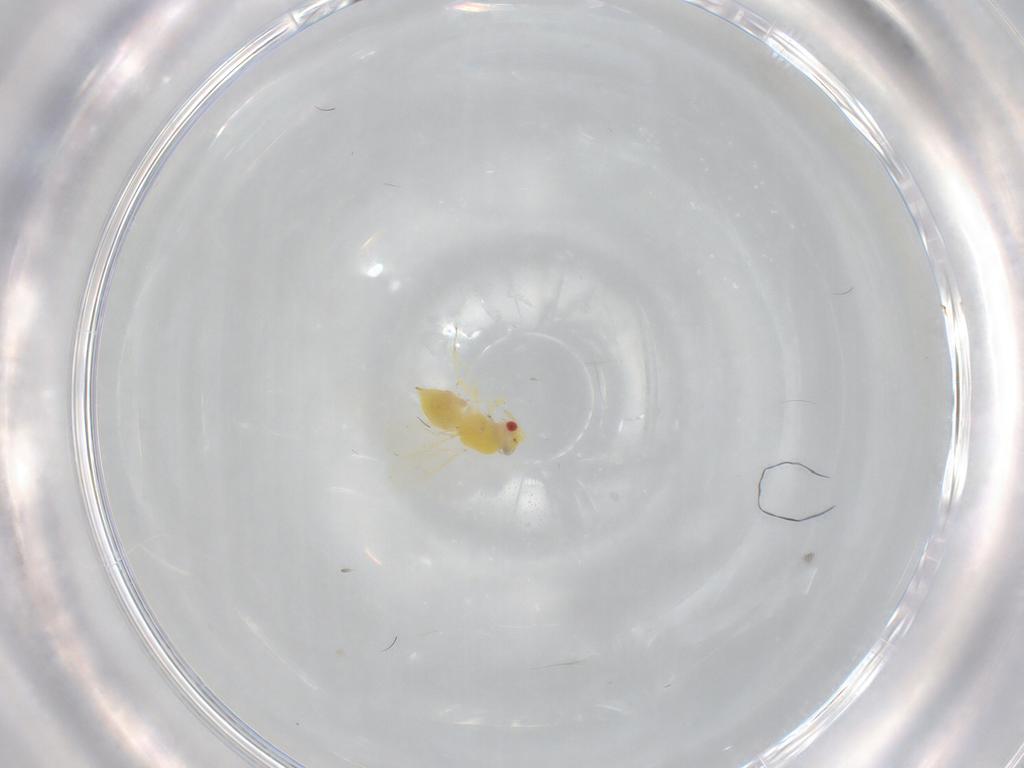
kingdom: Animalia
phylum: Arthropoda
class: Insecta
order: Hymenoptera
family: Eulophidae
